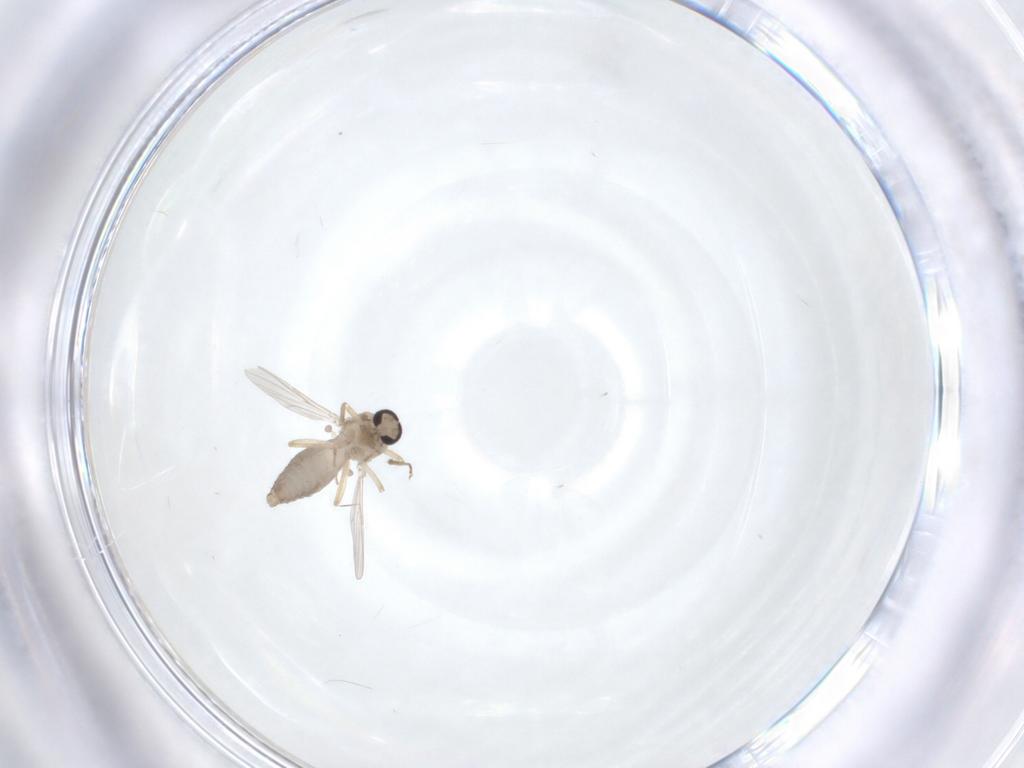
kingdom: Animalia
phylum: Arthropoda
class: Insecta
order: Diptera
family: Ceratopogonidae
